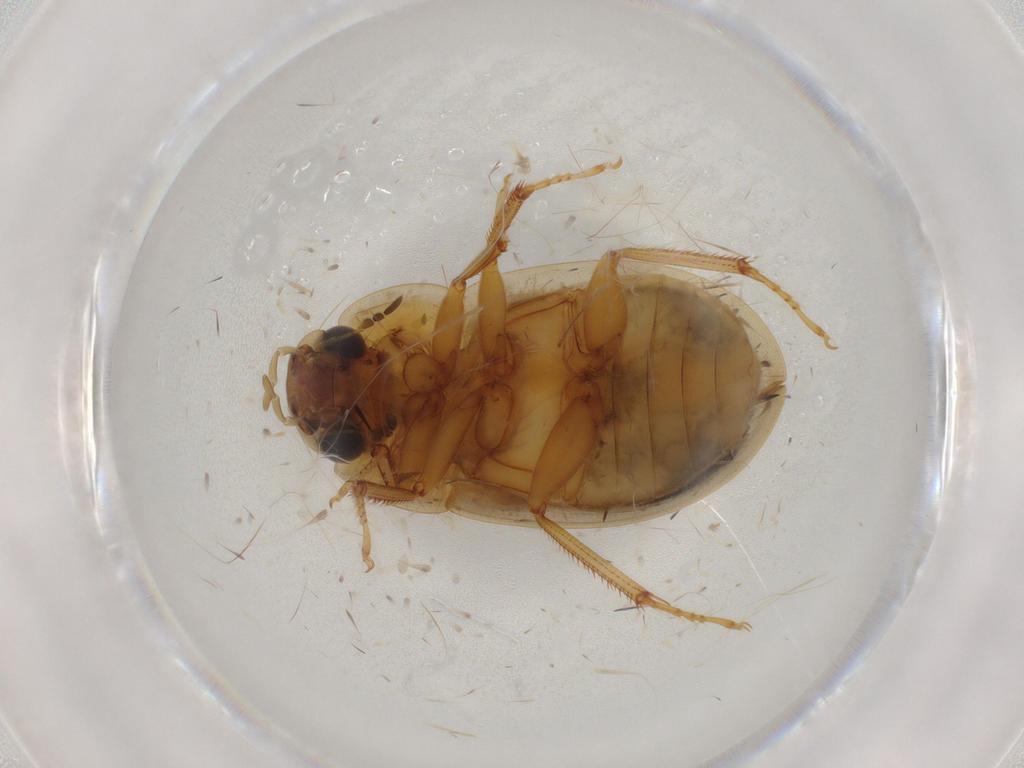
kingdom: Animalia
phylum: Arthropoda
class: Insecta
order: Coleoptera
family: Hydrophilidae
